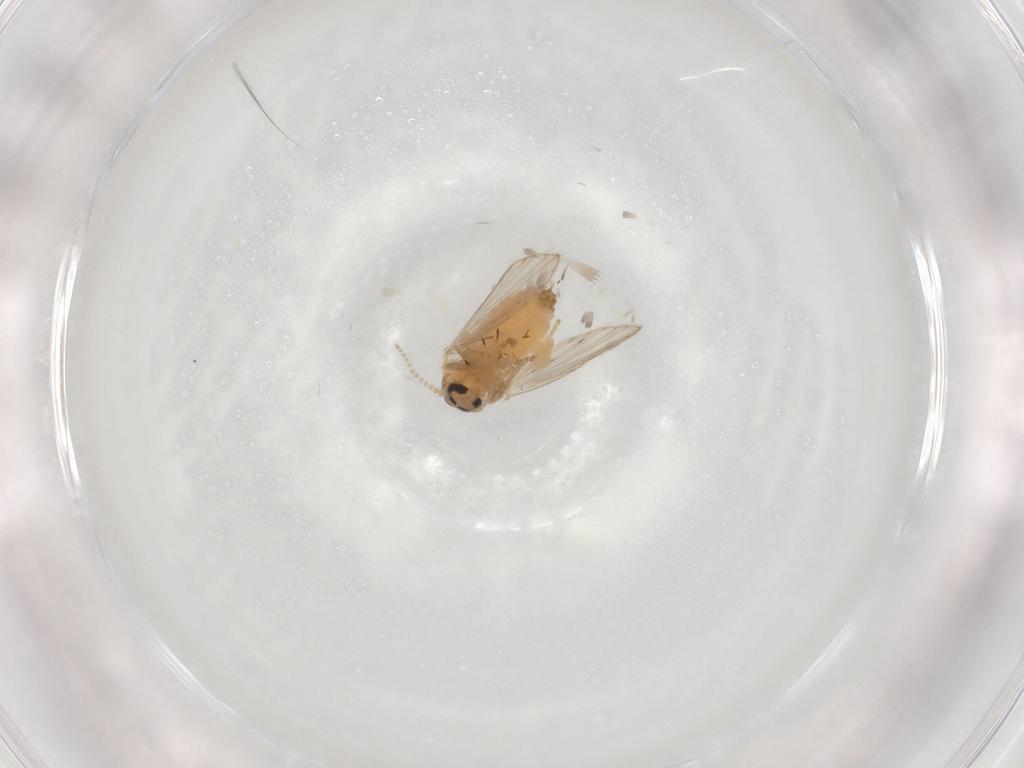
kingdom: Animalia
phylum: Arthropoda
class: Insecta
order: Diptera
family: Psychodidae
